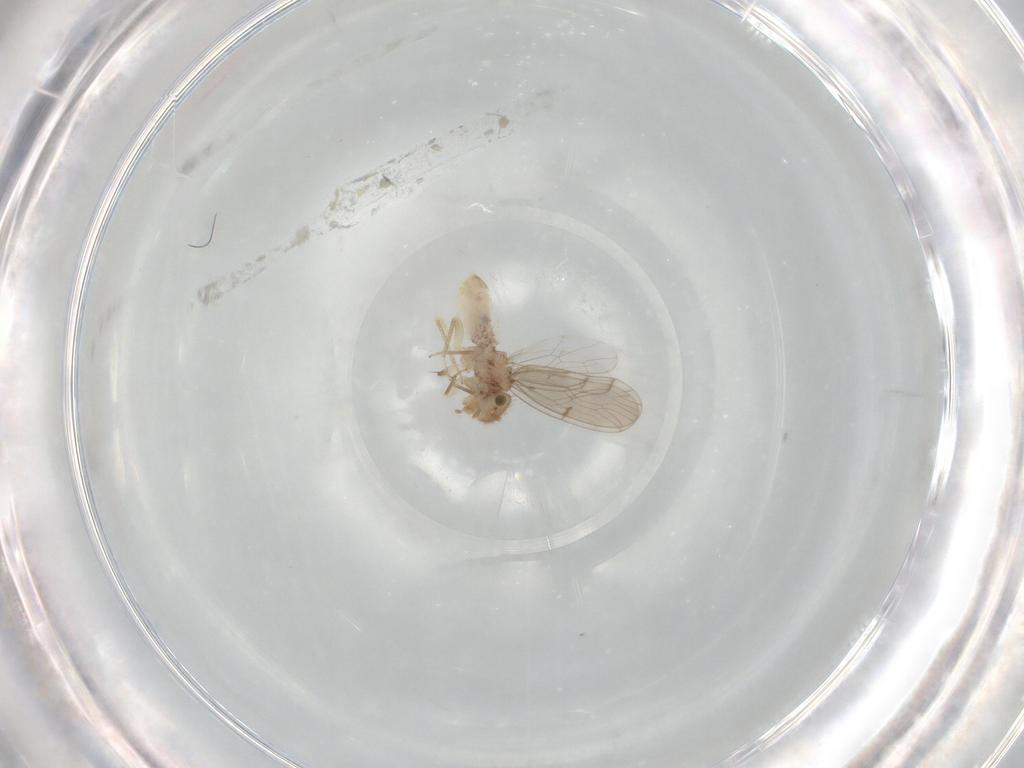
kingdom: Animalia
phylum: Arthropoda
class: Insecta
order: Psocodea
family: Ectopsocidae
